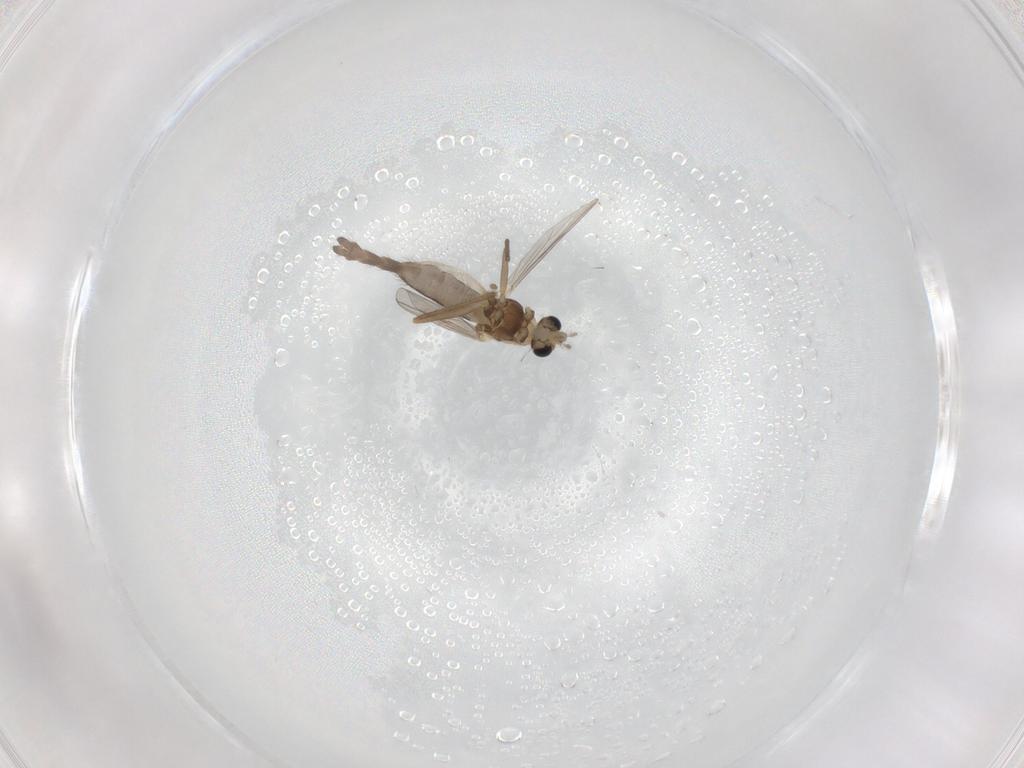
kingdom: Animalia
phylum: Arthropoda
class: Insecta
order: Diptera
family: Chironomidae
